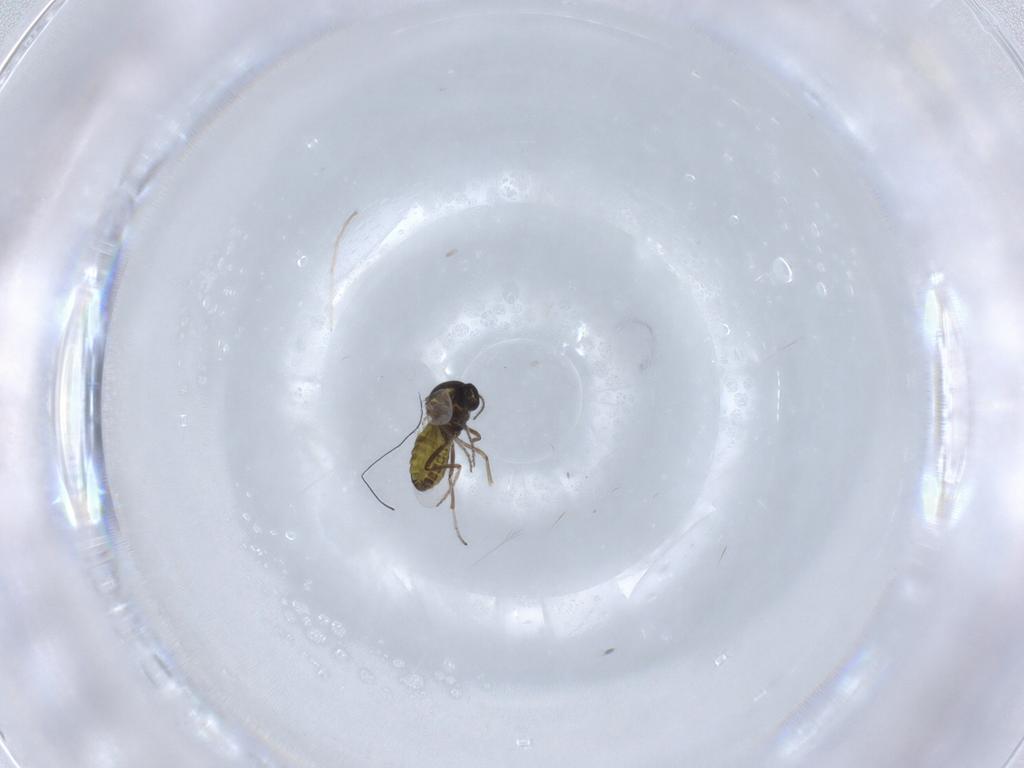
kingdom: Animalia
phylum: Arthropoda
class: Insecta
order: Diptera
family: Ceratopogonidae
